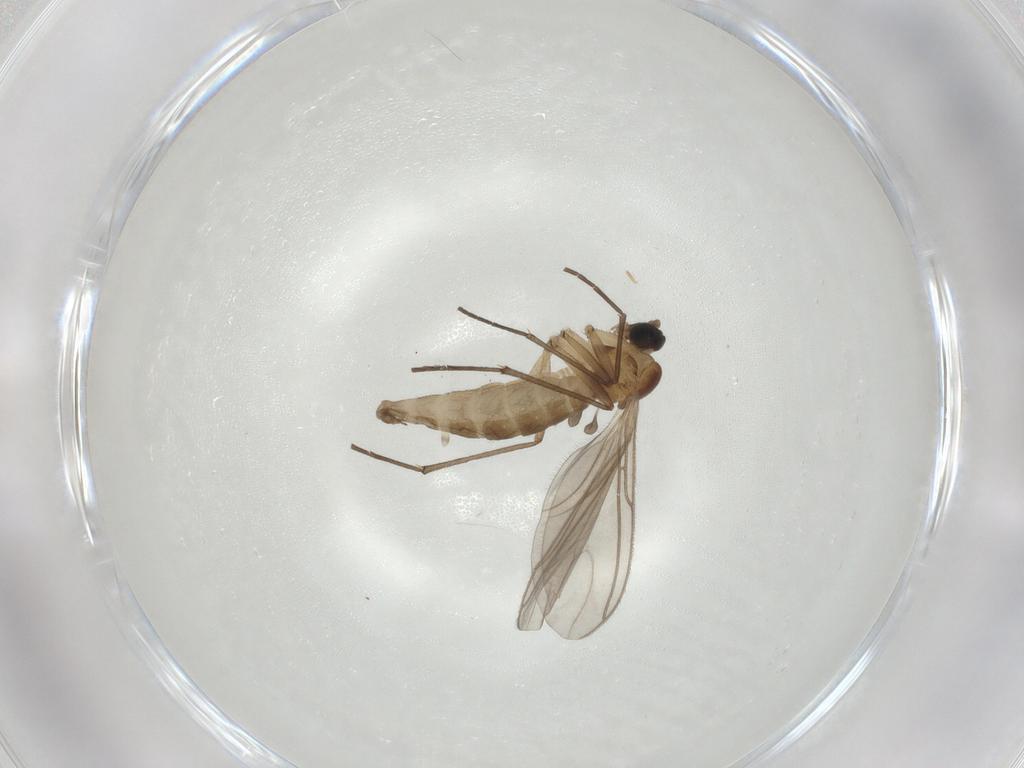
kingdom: Animalia
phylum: Arthropoda
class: Insecta
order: Diptera
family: Sciaridae
